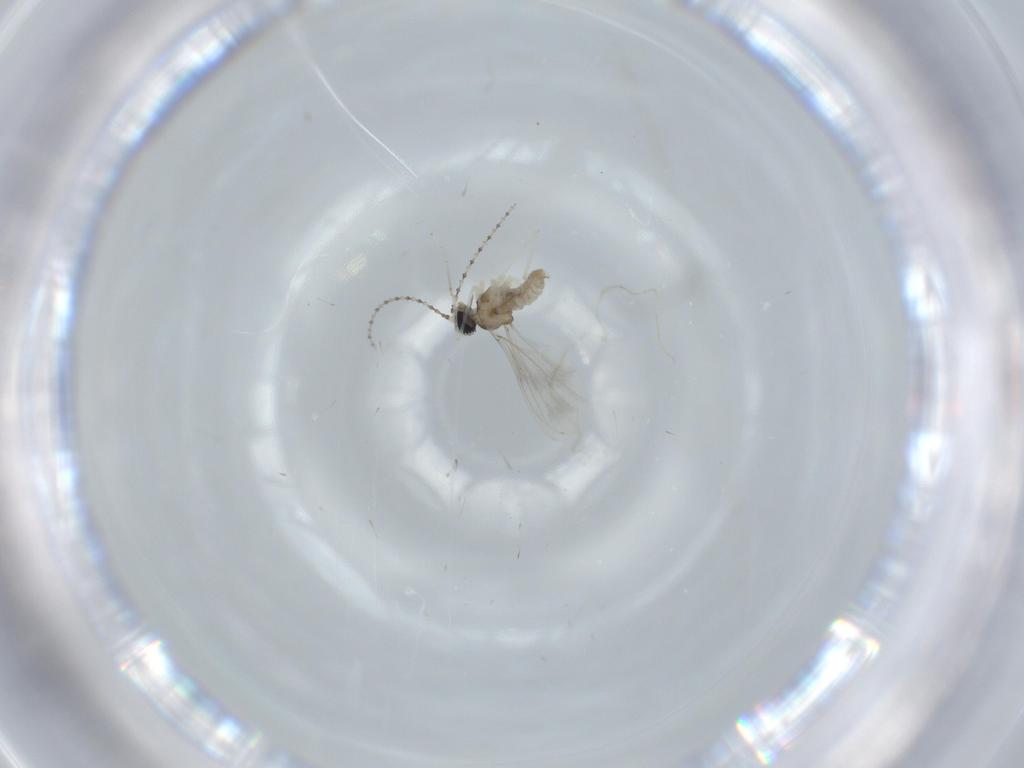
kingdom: Animalia
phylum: Arthropoda
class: Insecta
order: Diptera
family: Cecidomyiidae
